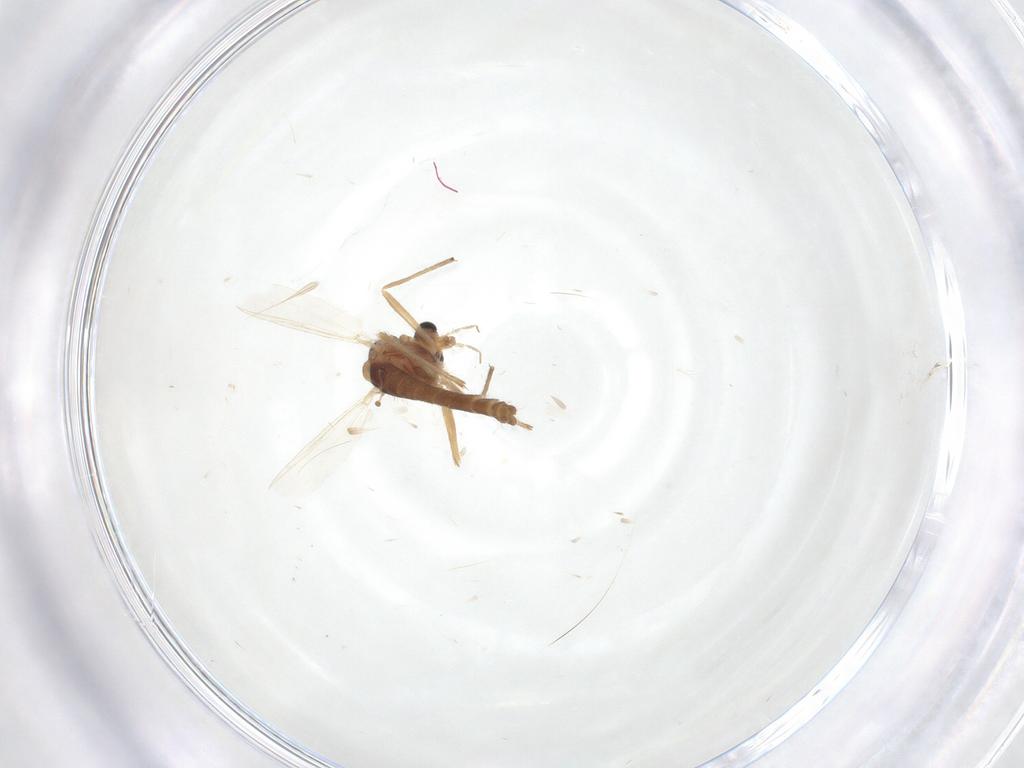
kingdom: Animalia
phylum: Arthropoda
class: Insecta
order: Diptera
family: Chironomidae
